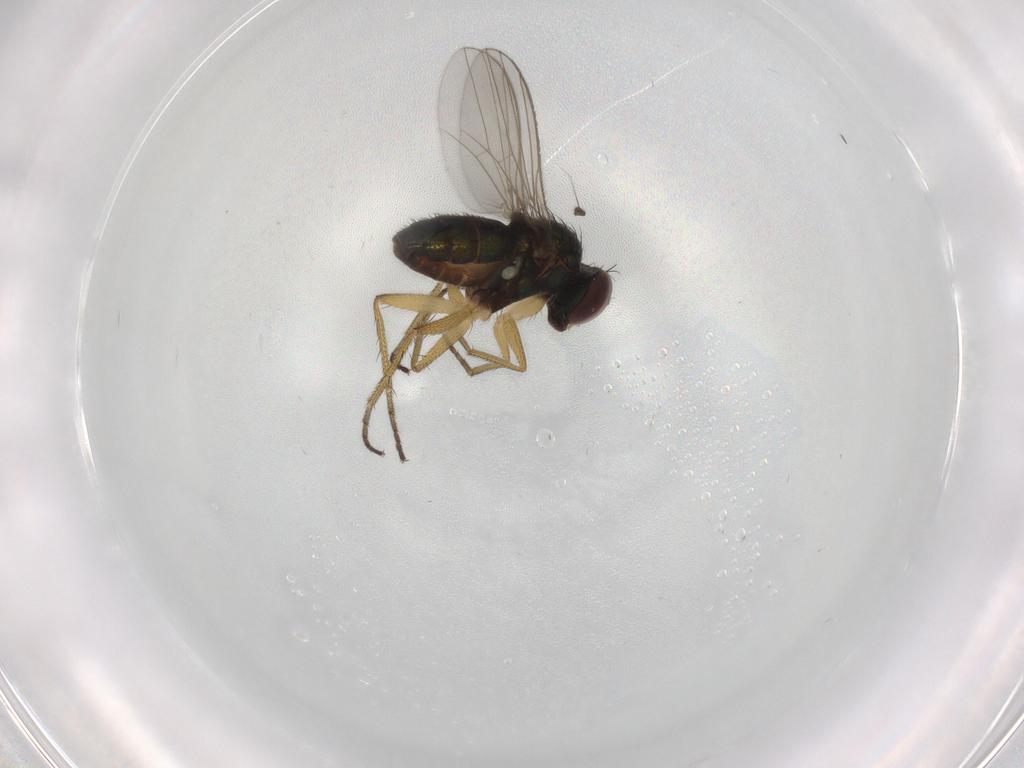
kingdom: Animalia
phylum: Arthropoda
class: Insecta
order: Diptera
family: Dolichopodidae
